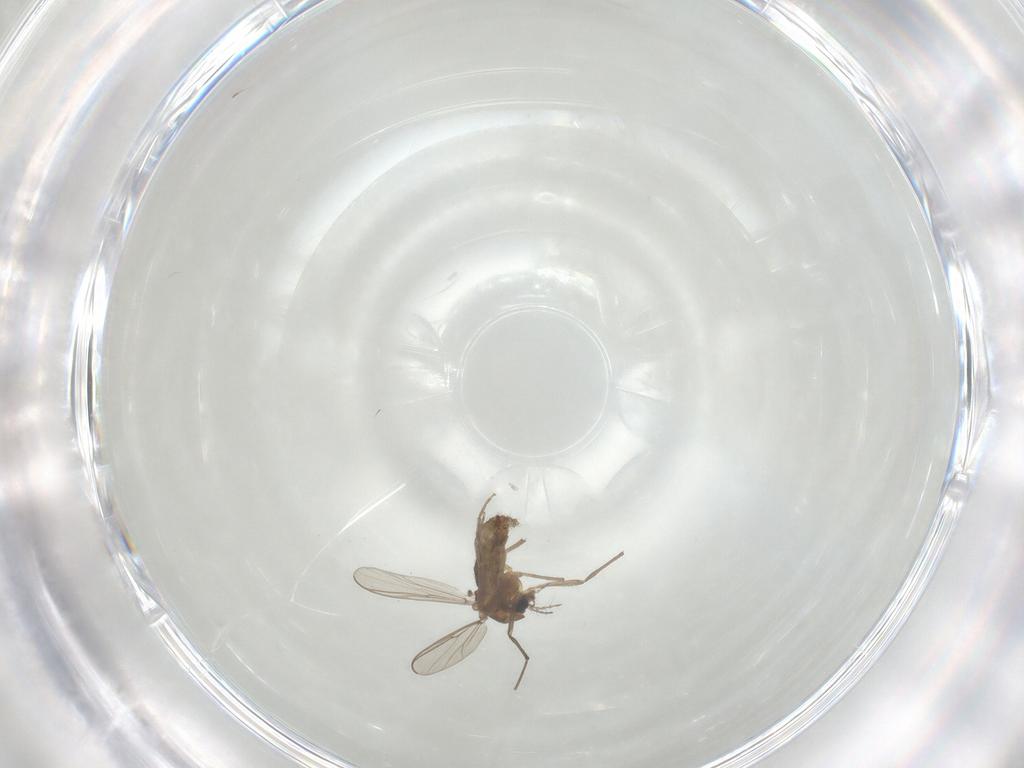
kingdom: Animalia
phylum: Arthropoda
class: Insecta
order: Diptera
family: Chironomidae
